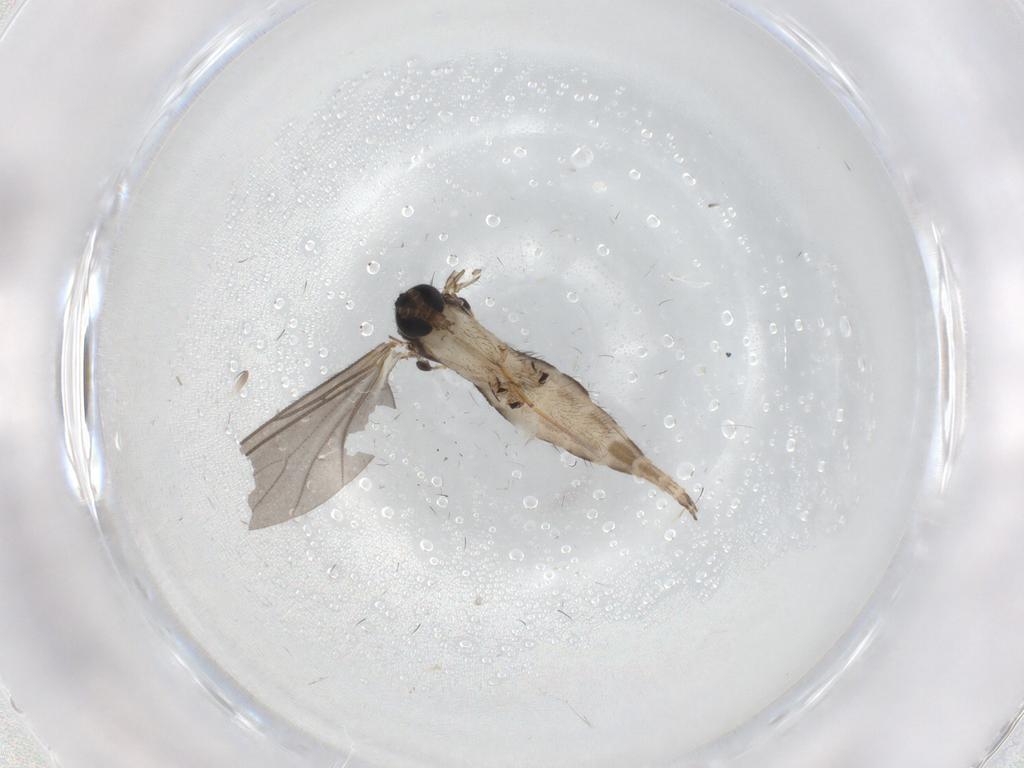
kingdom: Animalia
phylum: Arthropoda
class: Insecta
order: Diptera
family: Sciaridae
